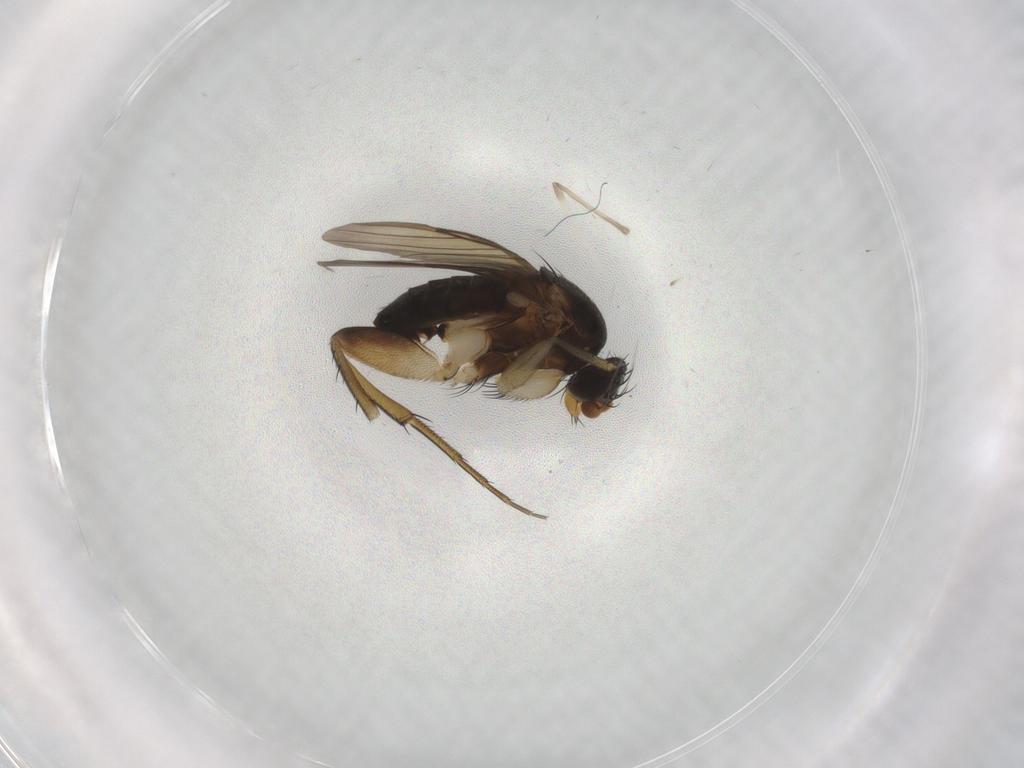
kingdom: Animalia
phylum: Arthropoda
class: Insecta
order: Diptera
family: Phoridae
